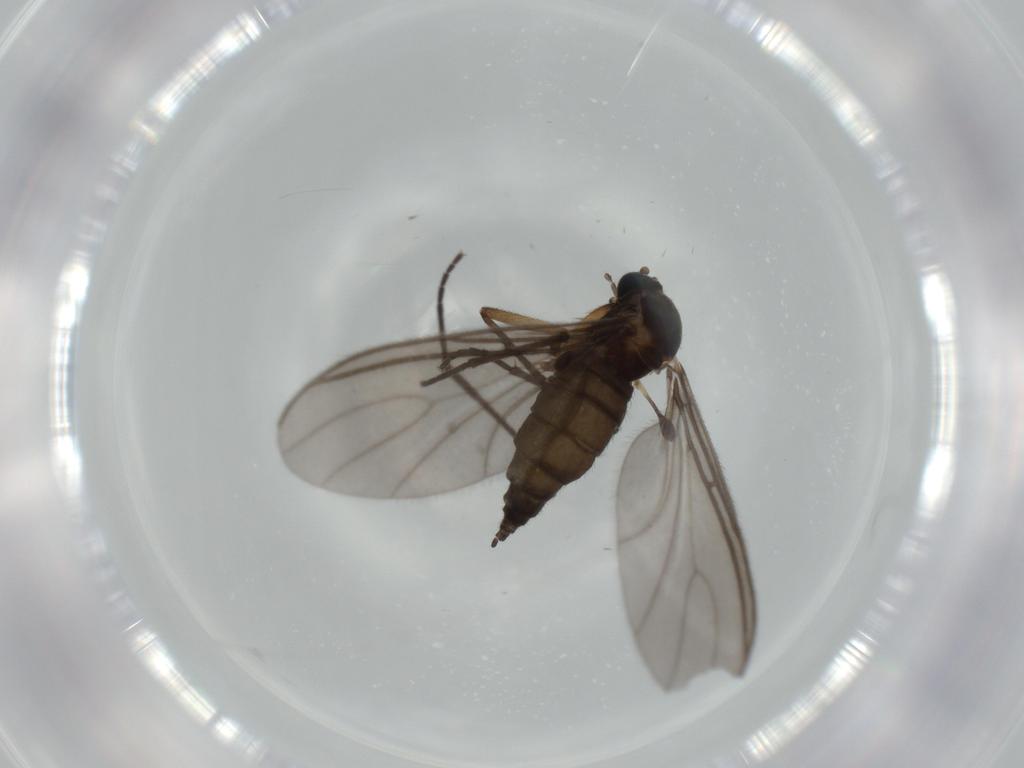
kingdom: Animalia
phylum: Arthropoda
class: Insecta
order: Diptera
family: Sciaridae
